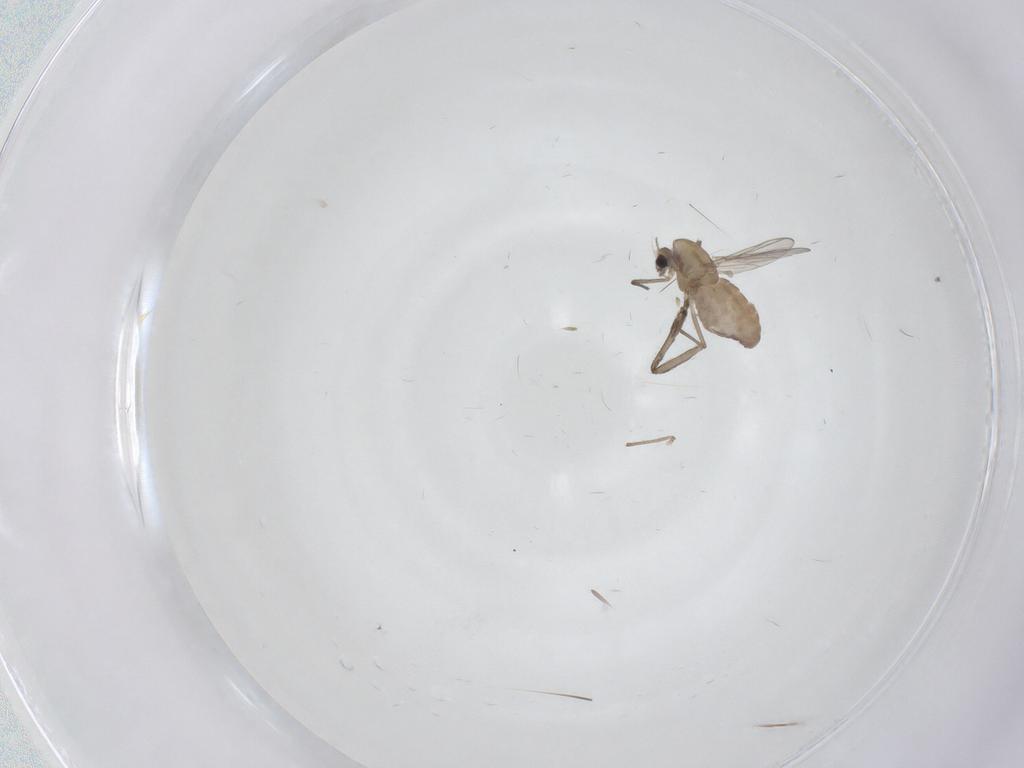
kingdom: Animalia
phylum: Arthropoda
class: Insecta
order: Diptera
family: Chironomidae
